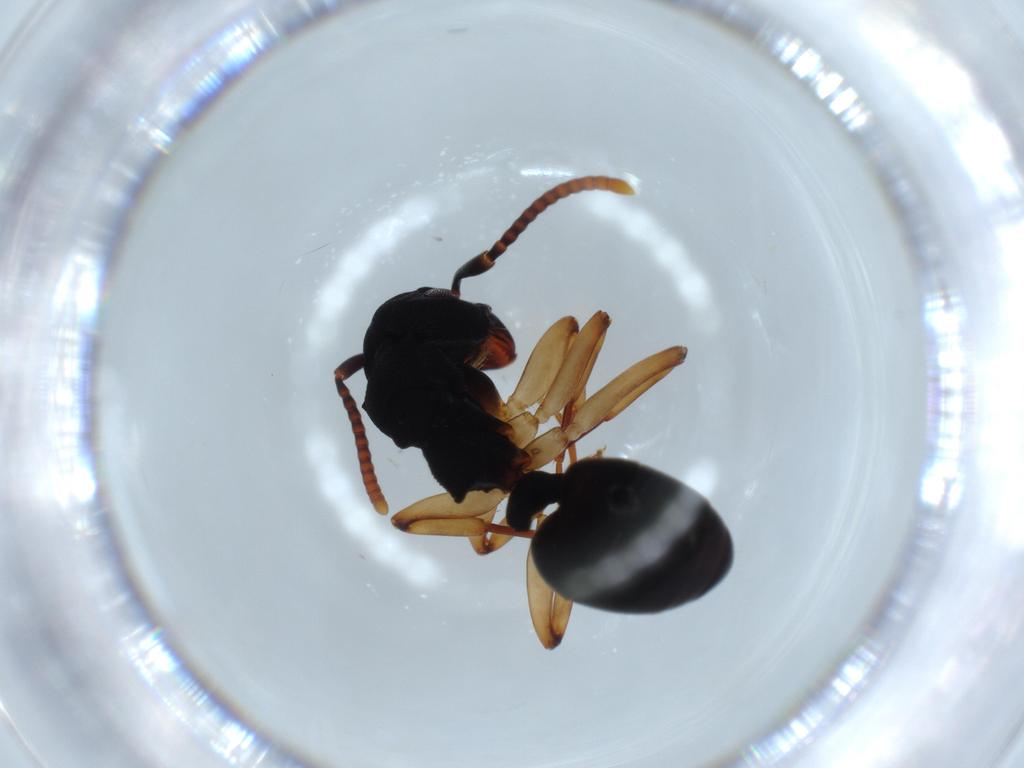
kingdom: Animalia
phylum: Arthropoda
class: Insecta
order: Hymenoptera
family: Formicidae
